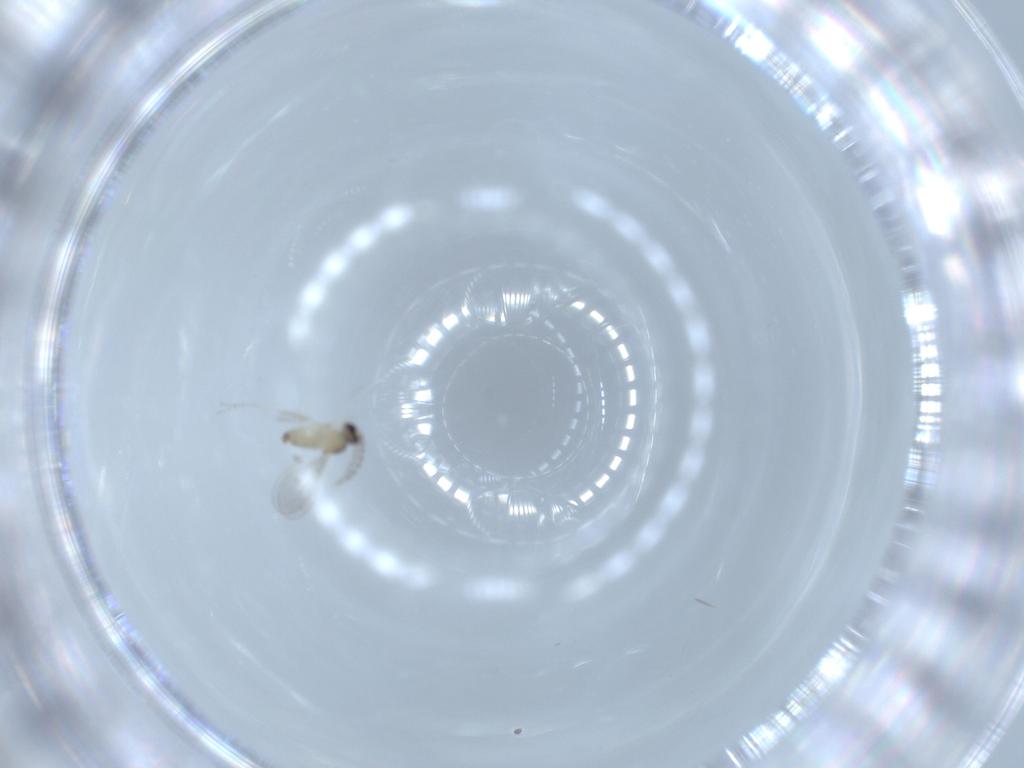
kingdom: Animalia
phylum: Arthropoda
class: Insecta
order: Diptera
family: Cecidomyiidae
